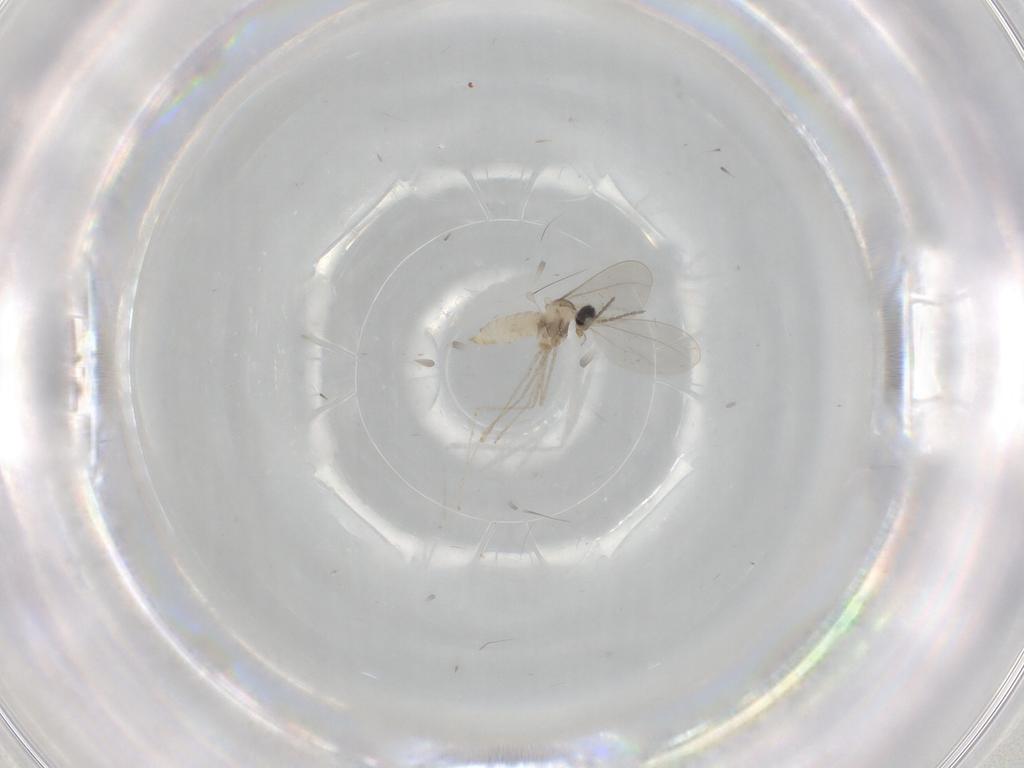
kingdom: Animalia
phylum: Arthropoda
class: Insecta
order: Diptera
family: Cecidomyiidae
